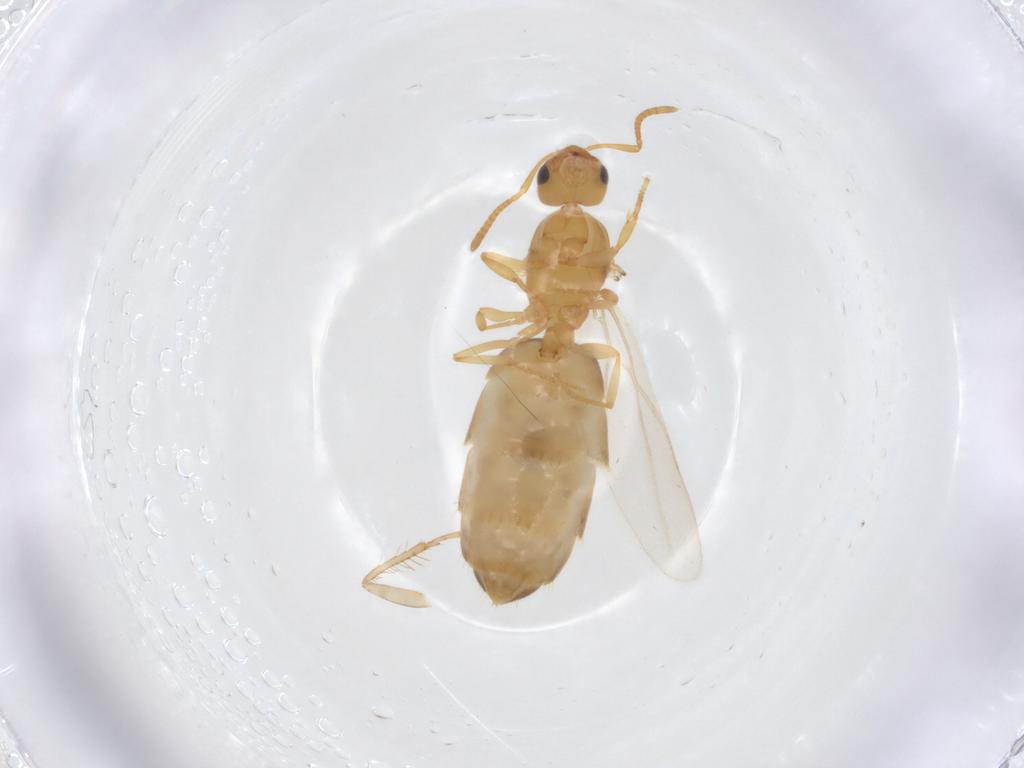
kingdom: Animalia
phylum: Arthropoda
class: Insecta
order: Hymenoptera
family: Formicidae
